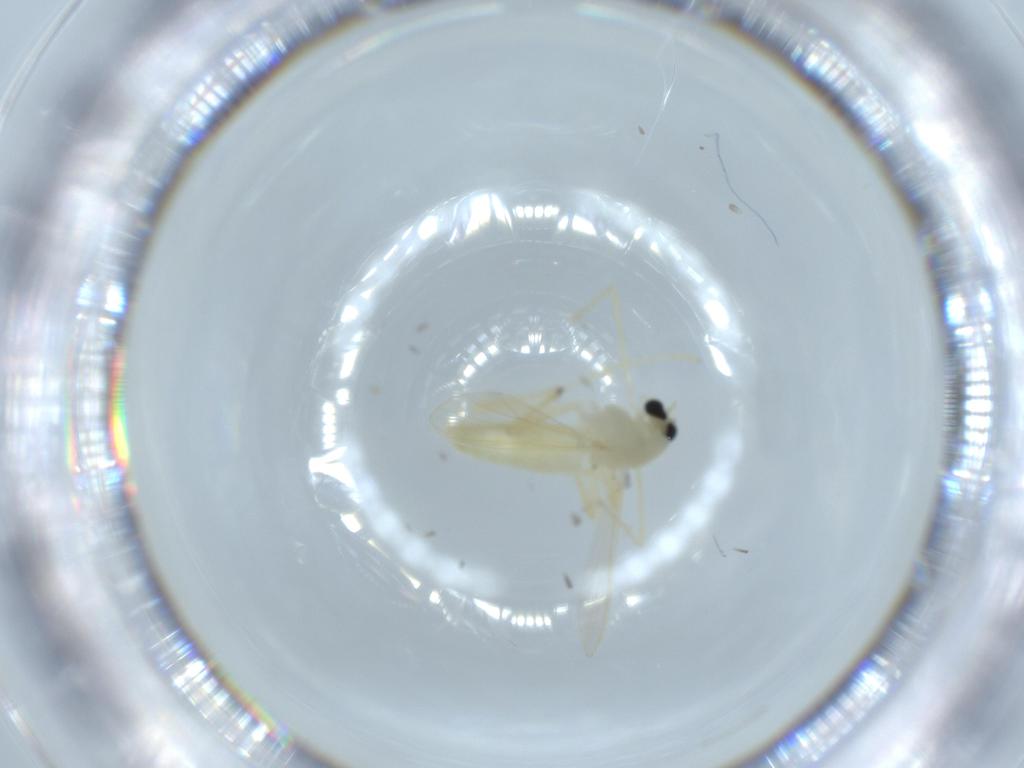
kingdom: Animalia
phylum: Arthropoda
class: Insecta
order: Diptera
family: Chironomidae
